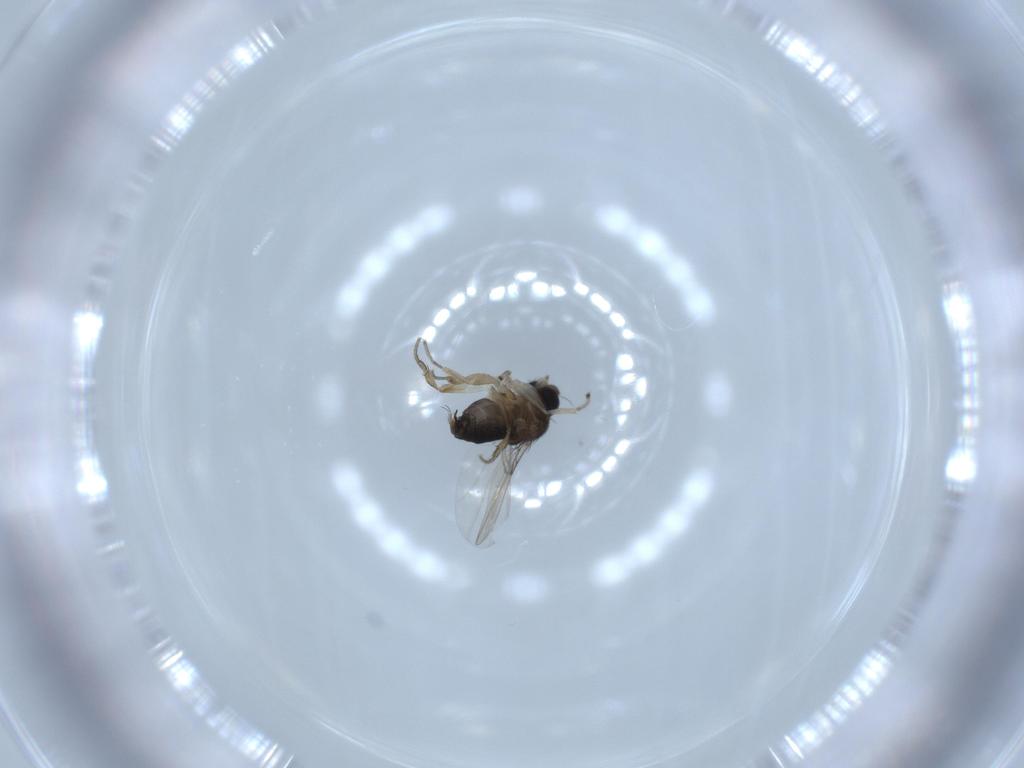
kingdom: Animalia
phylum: Arthropoda
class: Insecta
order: Diptera
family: Phoridae
